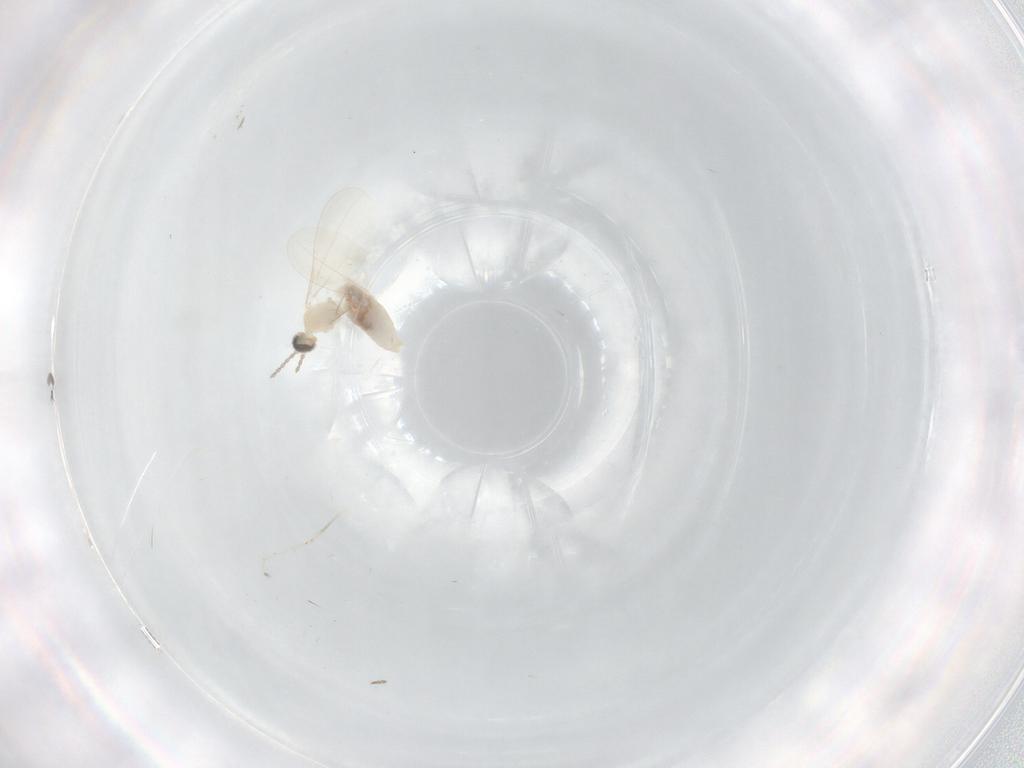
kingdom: Animalia
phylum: Arthropoda
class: Insecta
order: Diptera
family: Cecidomyiidae
